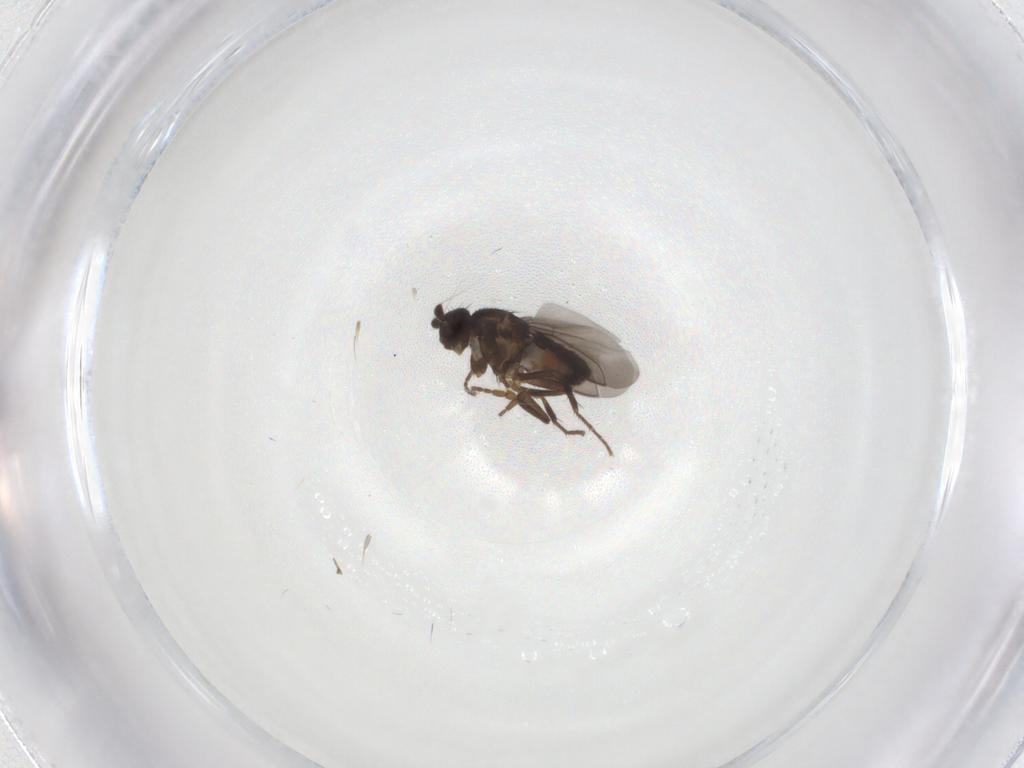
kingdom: Animalia
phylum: Arthropoda
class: Insecta
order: Diptera
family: Sphaeroceridae
